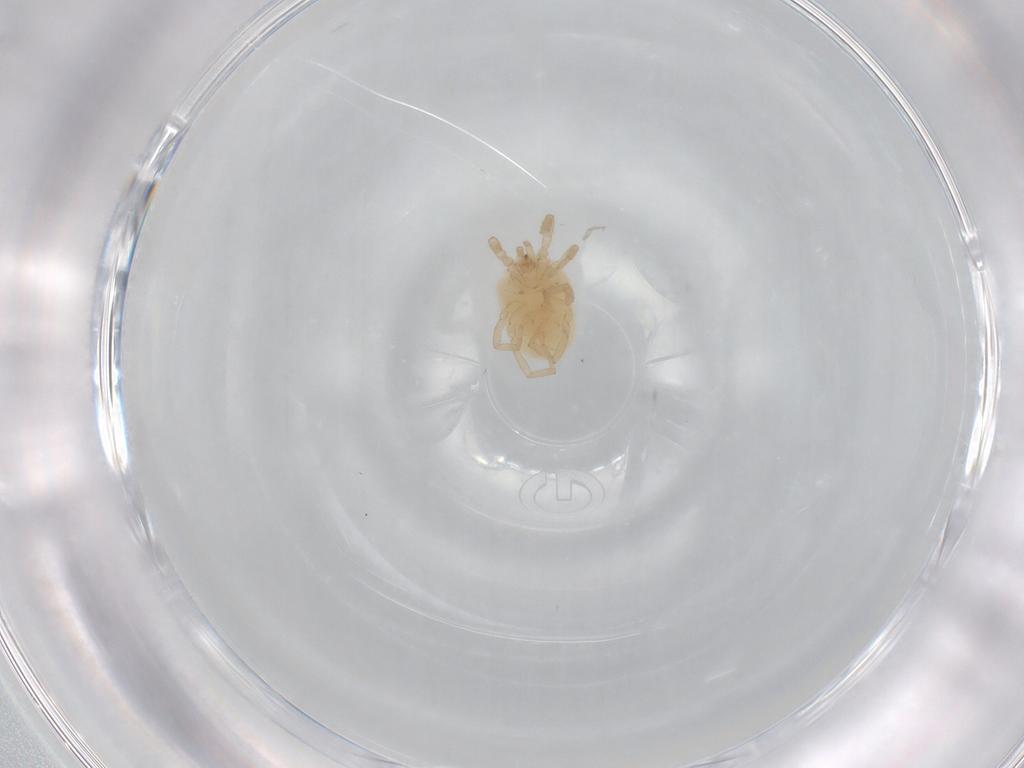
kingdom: Animalia
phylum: Arthropoda
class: Arachnida
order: Trombidiformes
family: Erythraeidae
